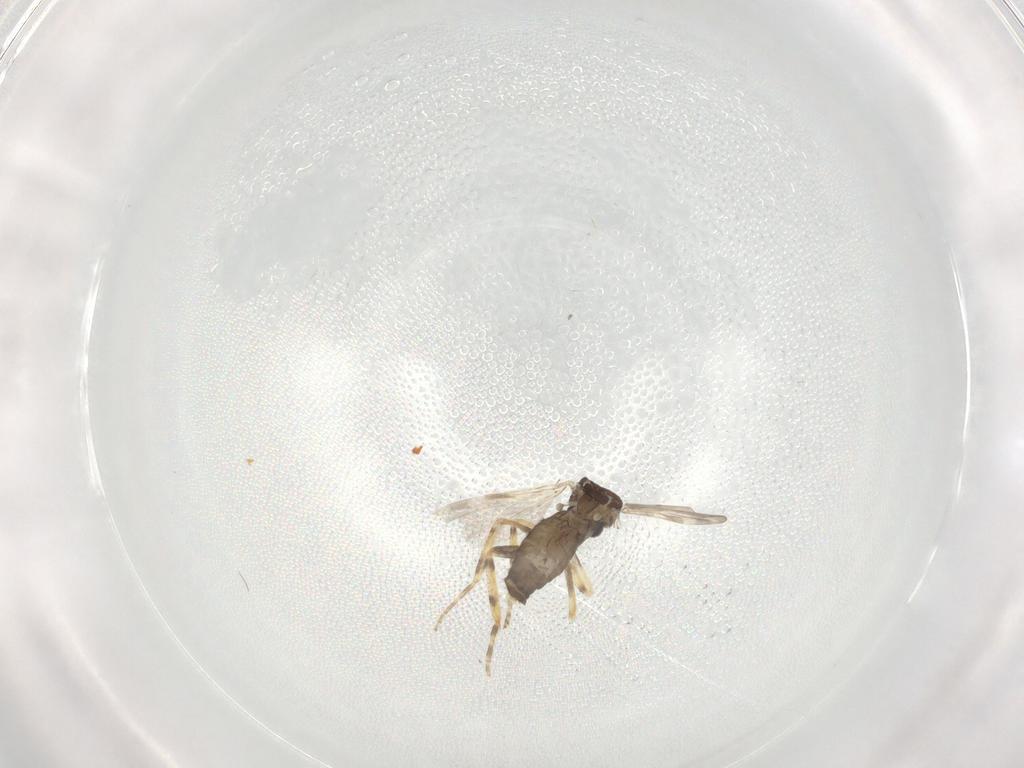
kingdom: Animalia
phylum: Arthropoda
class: Insecta
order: Diptera
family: Ceratopogonidae
